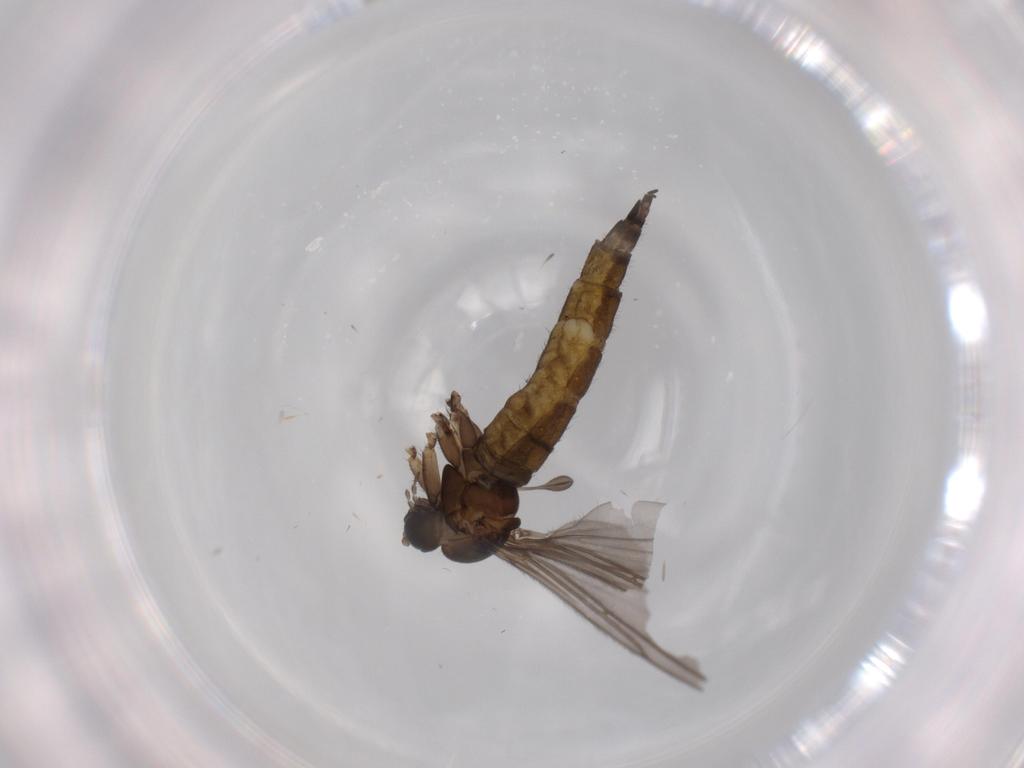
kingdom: Animalia
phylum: Arthropoda
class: Insecta
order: Diptera
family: Sciaridae
